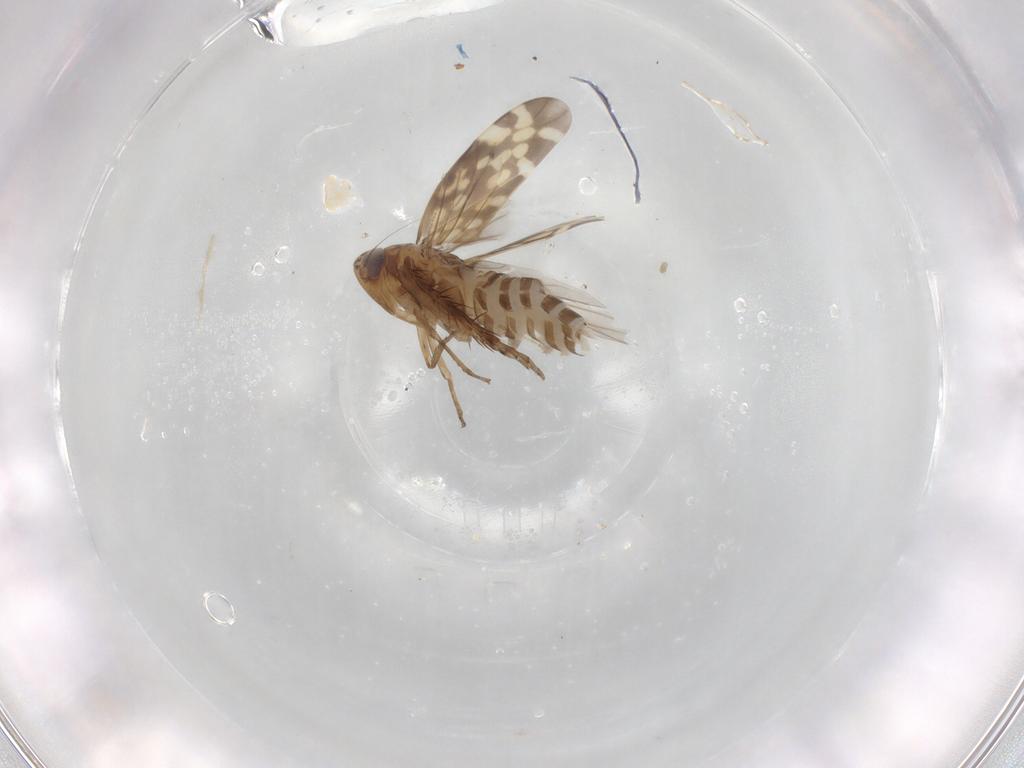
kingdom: Animalia
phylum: Arthropoda
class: Insecta
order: Hemiptera
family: Cicadellidae
